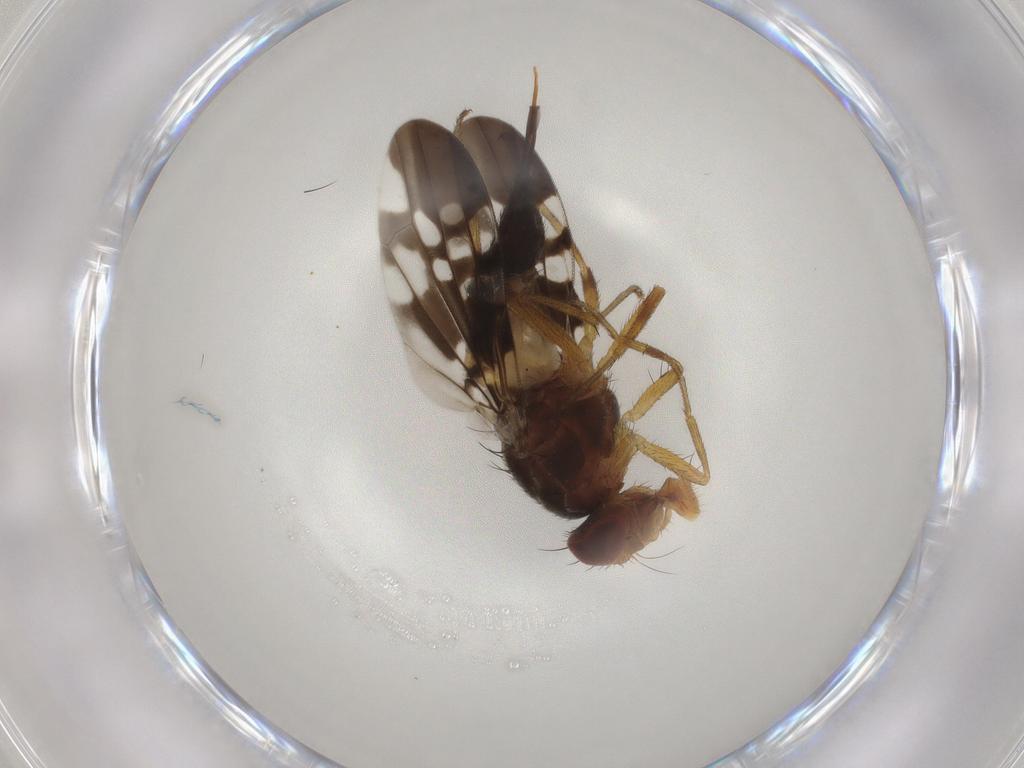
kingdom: Animalia
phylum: Arthropoda
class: Insecta
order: Diptera
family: Ulidiidae
